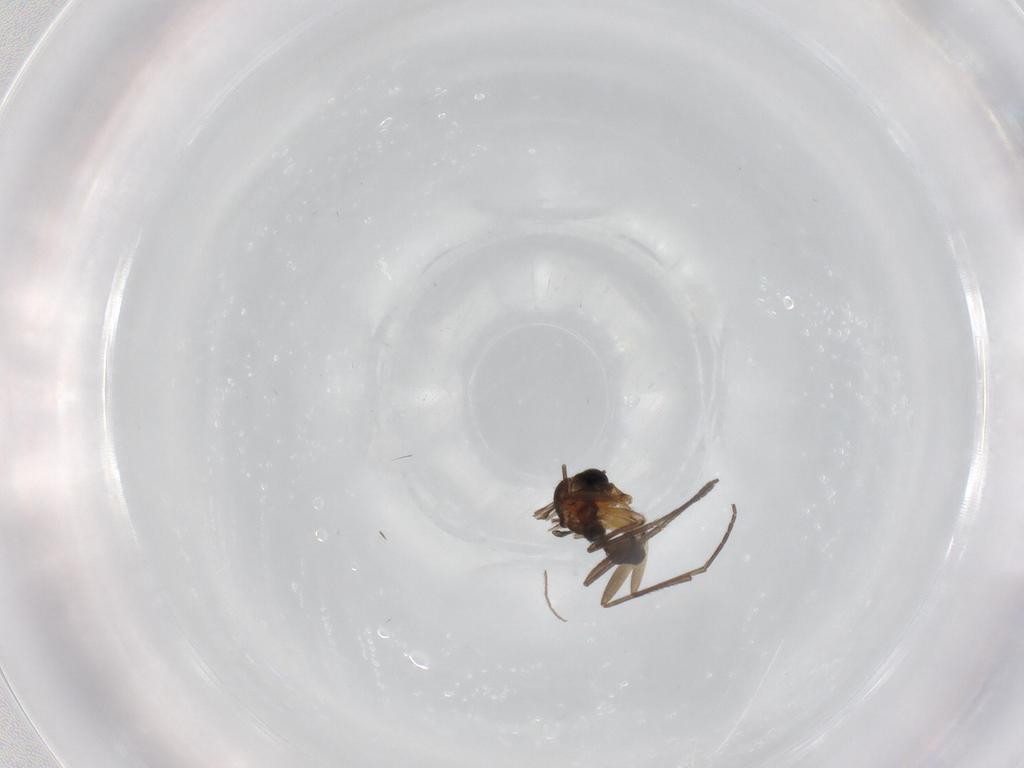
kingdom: Animalia
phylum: Arthropoda
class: Insecta
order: Diptera
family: Sciaridae
